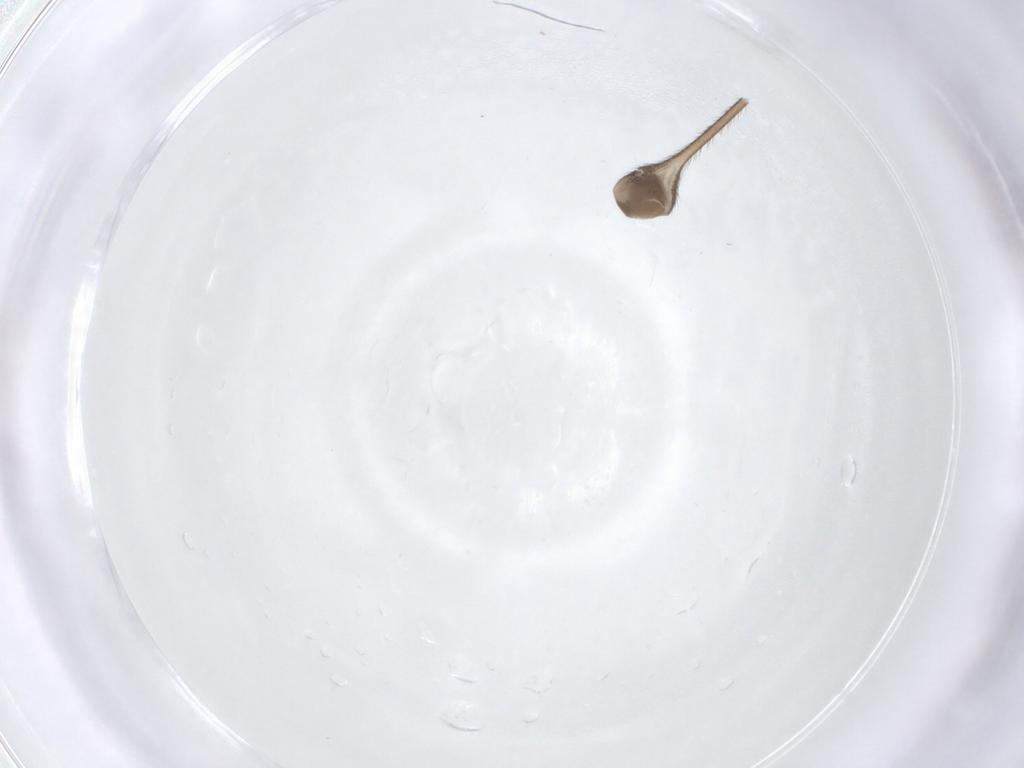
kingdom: Animalia
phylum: Arthropoda
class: Insecta
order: Diptera
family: Tipulidae
